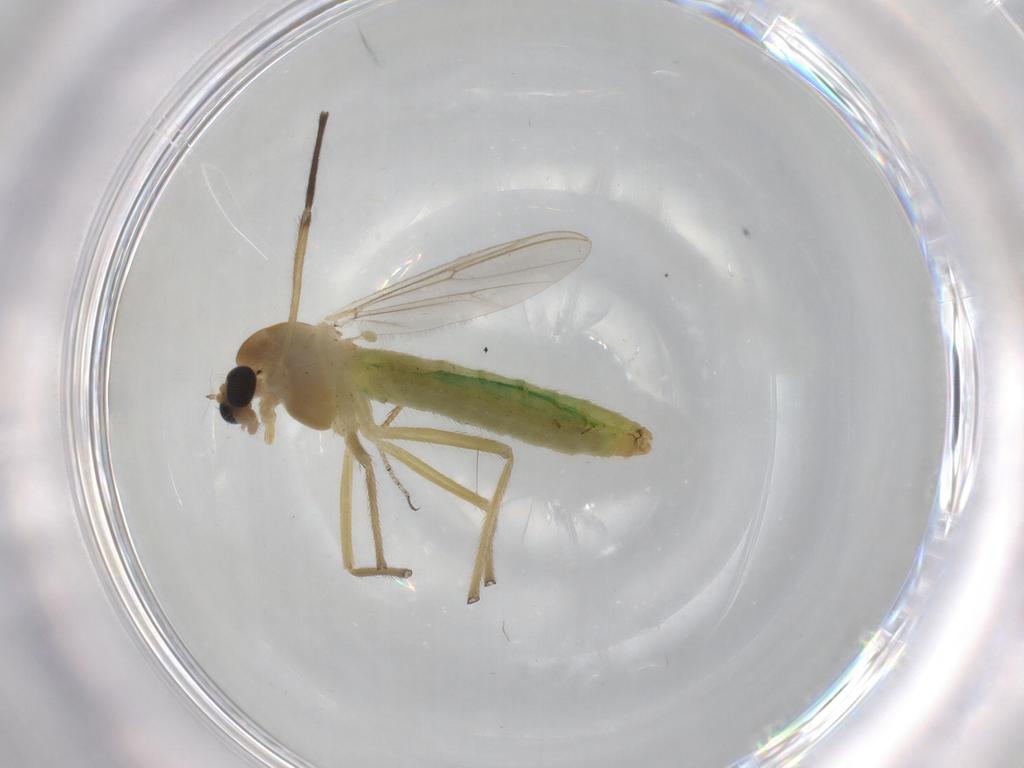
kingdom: Animalia
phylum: Arthropoda
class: Insecta
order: Diptera
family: Chironomidae
